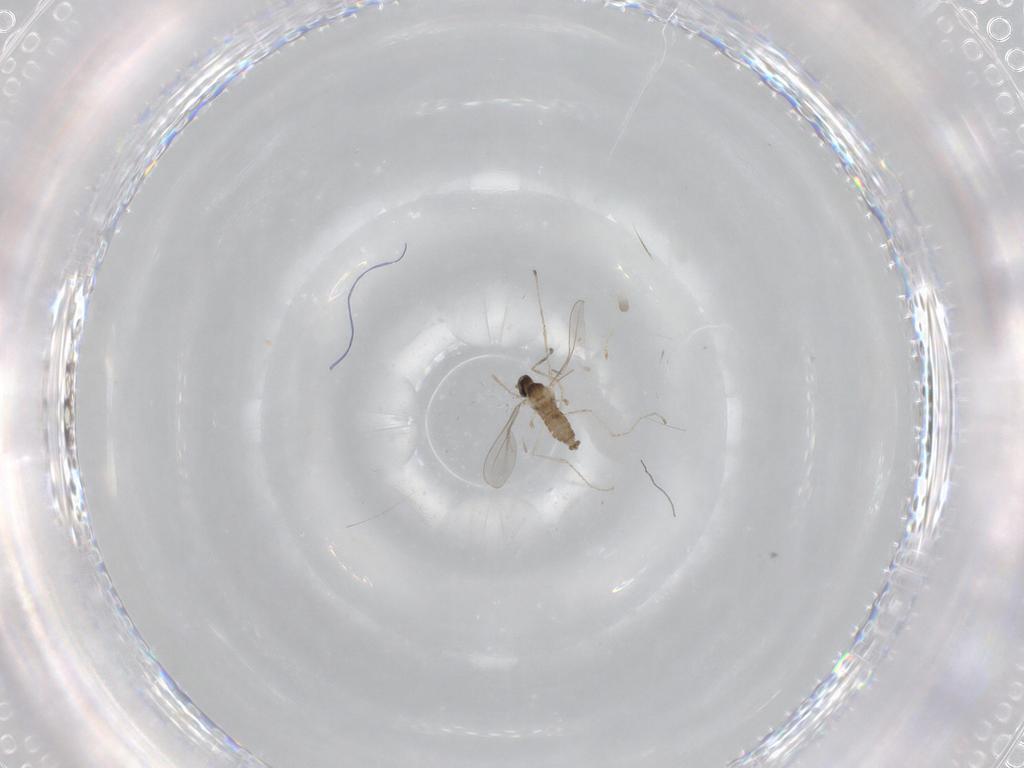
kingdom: Animalia
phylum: Arthropoda
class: Insecta
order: Diptera
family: Cecidomyiidae
